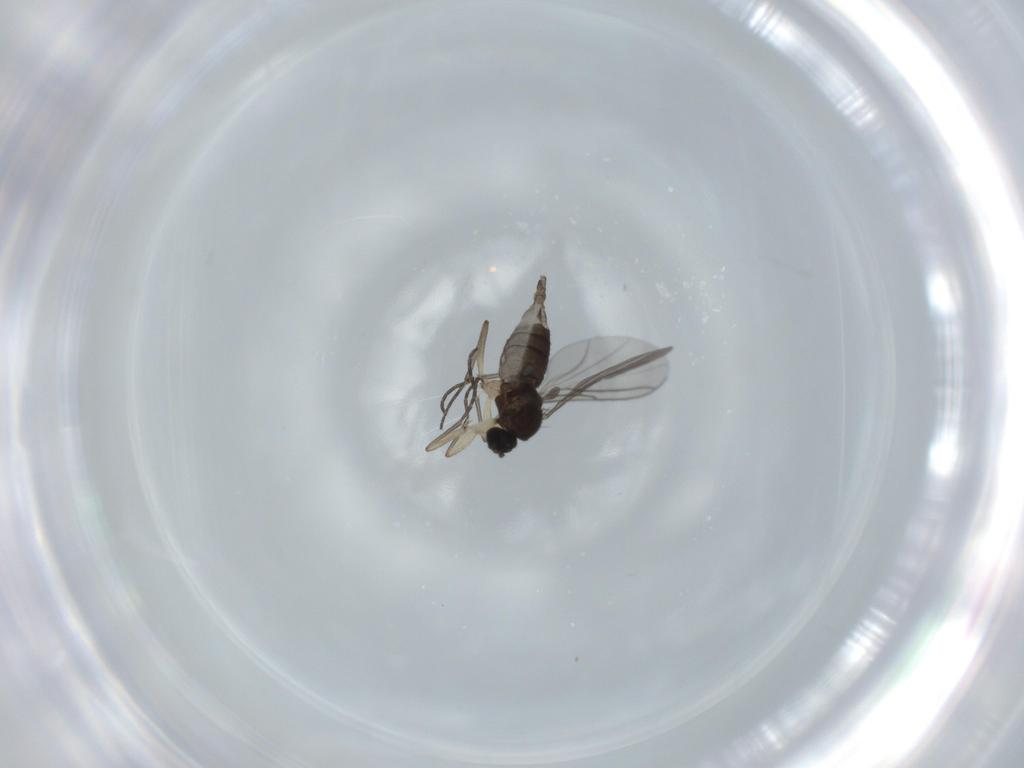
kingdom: Animalia
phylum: Arthropoda
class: Insecta
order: Diptera
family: Sciaridae
